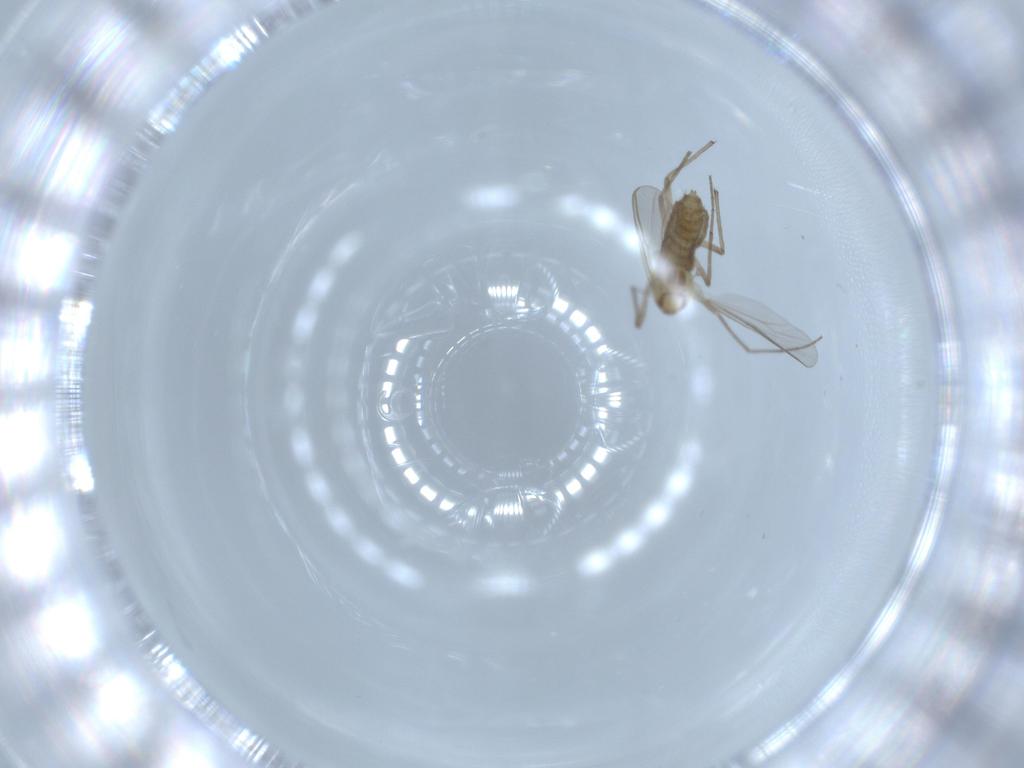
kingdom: Animalia
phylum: Arthropoda
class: Insecta
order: Diptera
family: Chironomidae
